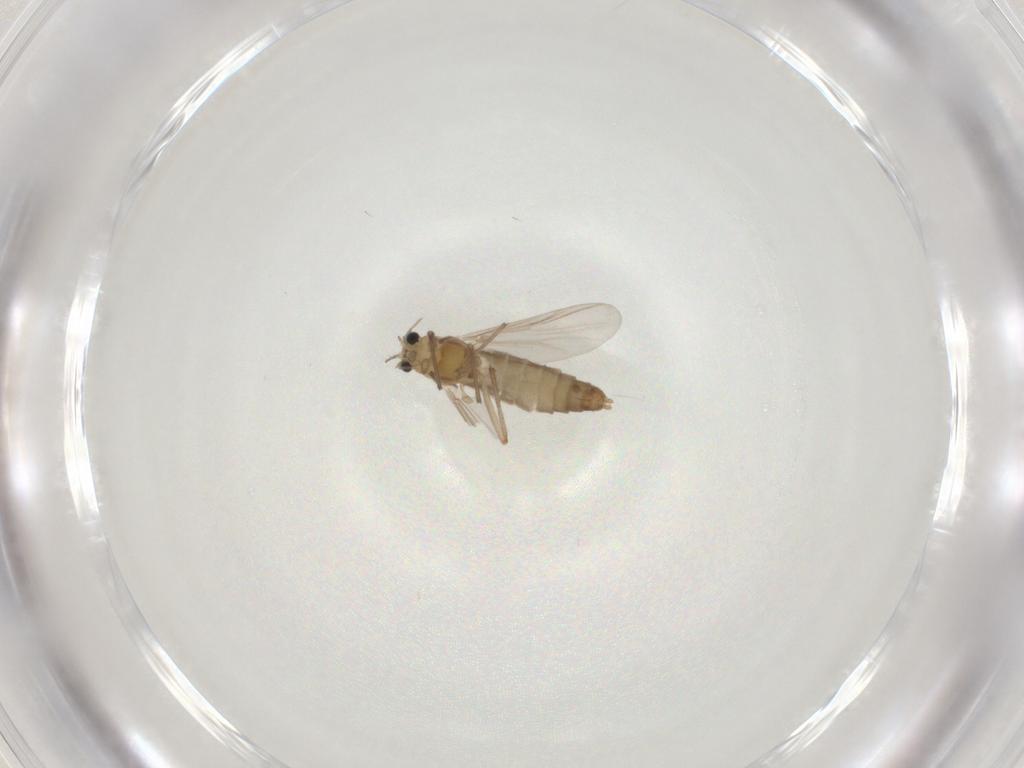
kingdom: Animalia
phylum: Arthropoda
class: Insecta
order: Diptera
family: Chironomidae
